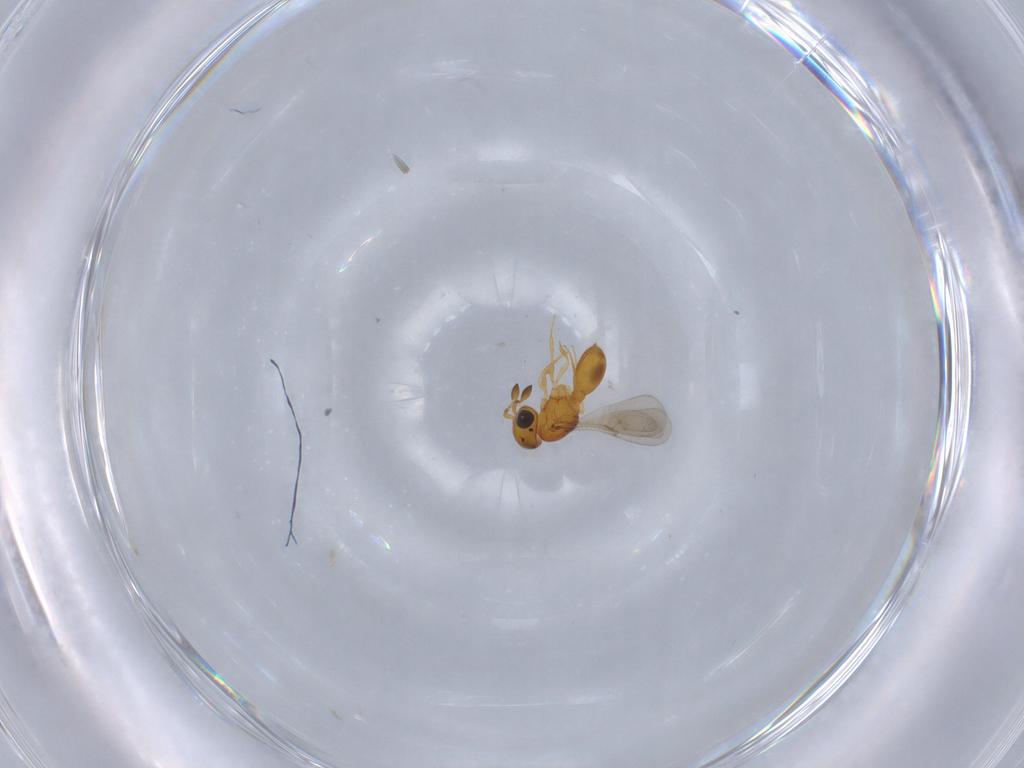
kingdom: Animalia
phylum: Arthropoda
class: Insecta
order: Hymenoptera
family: Scelionidae
